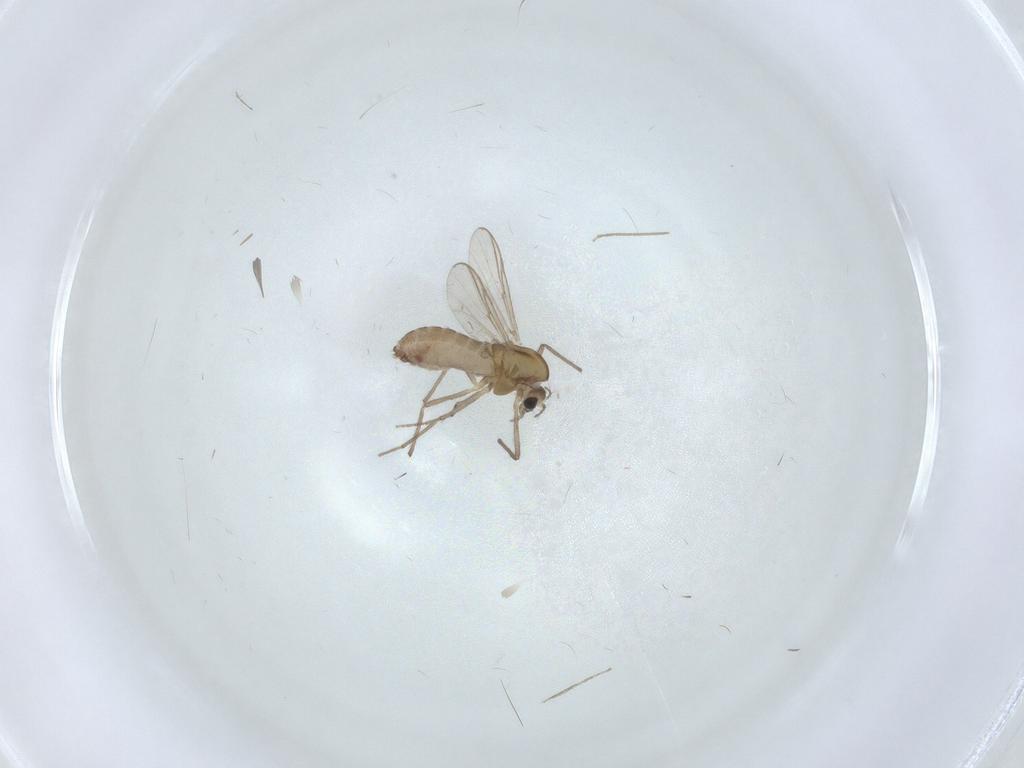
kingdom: Animalia
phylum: Arthropoda
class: Insecta
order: Diptera
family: Chironomidae
